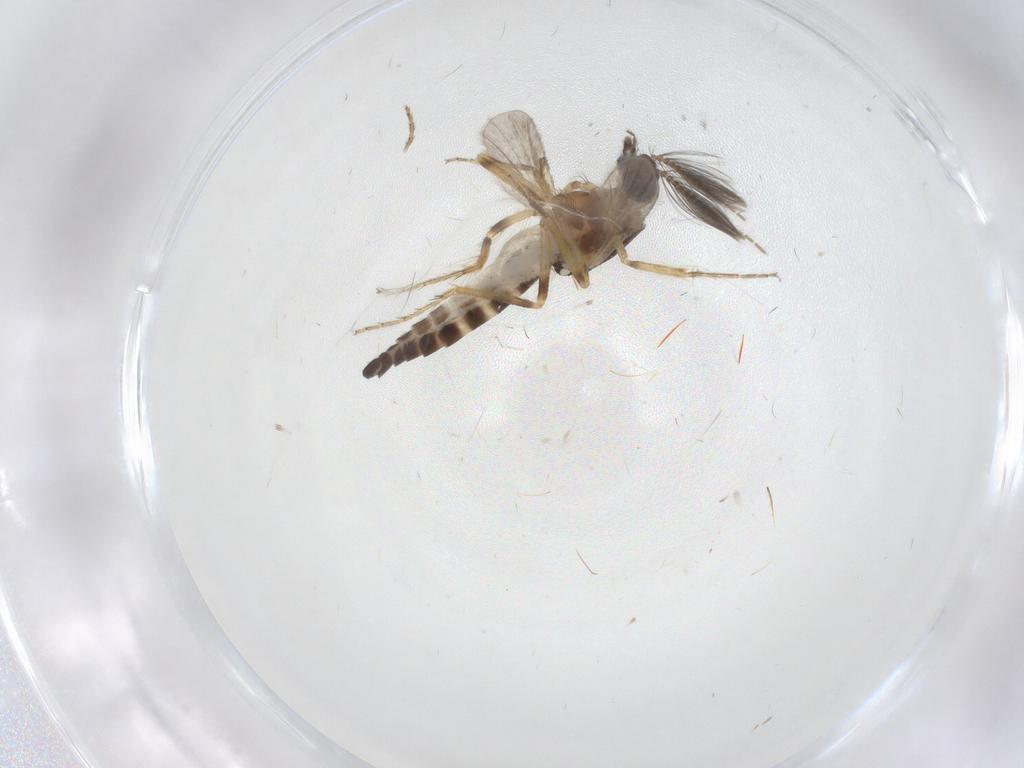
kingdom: Animalia
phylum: Arthropoda
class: Insecta
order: Diptera
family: Ceratopogonidae
